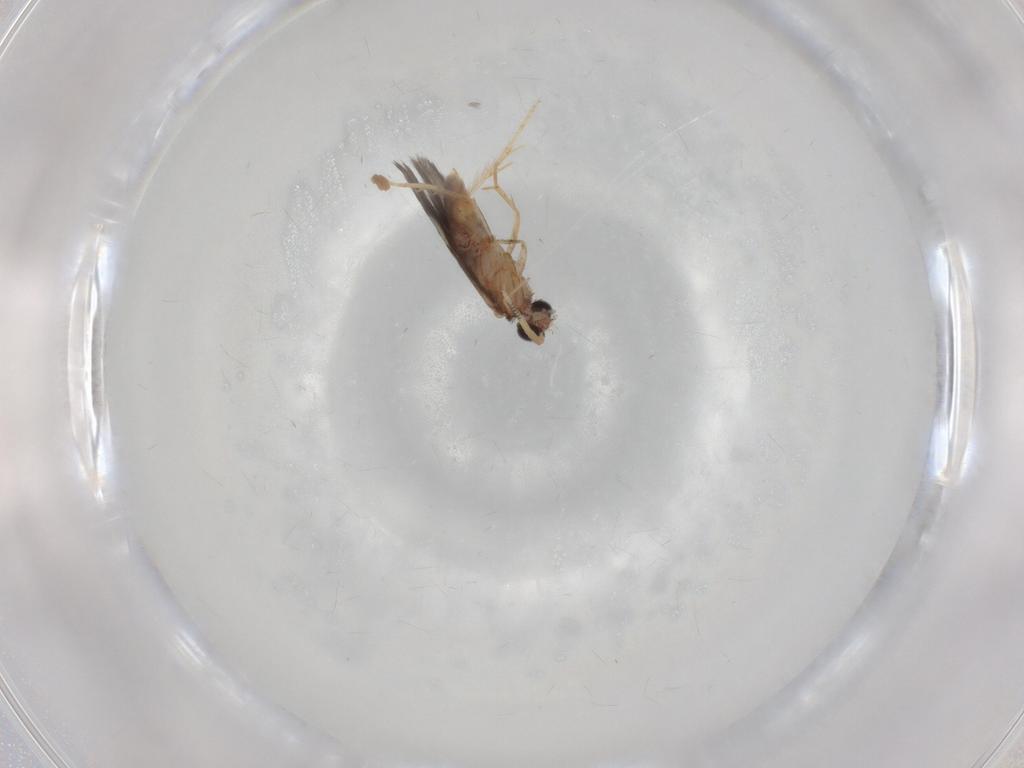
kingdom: Animalia
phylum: Arthropoda
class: Insecta
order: Trichoptera
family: Hydroptilidae
